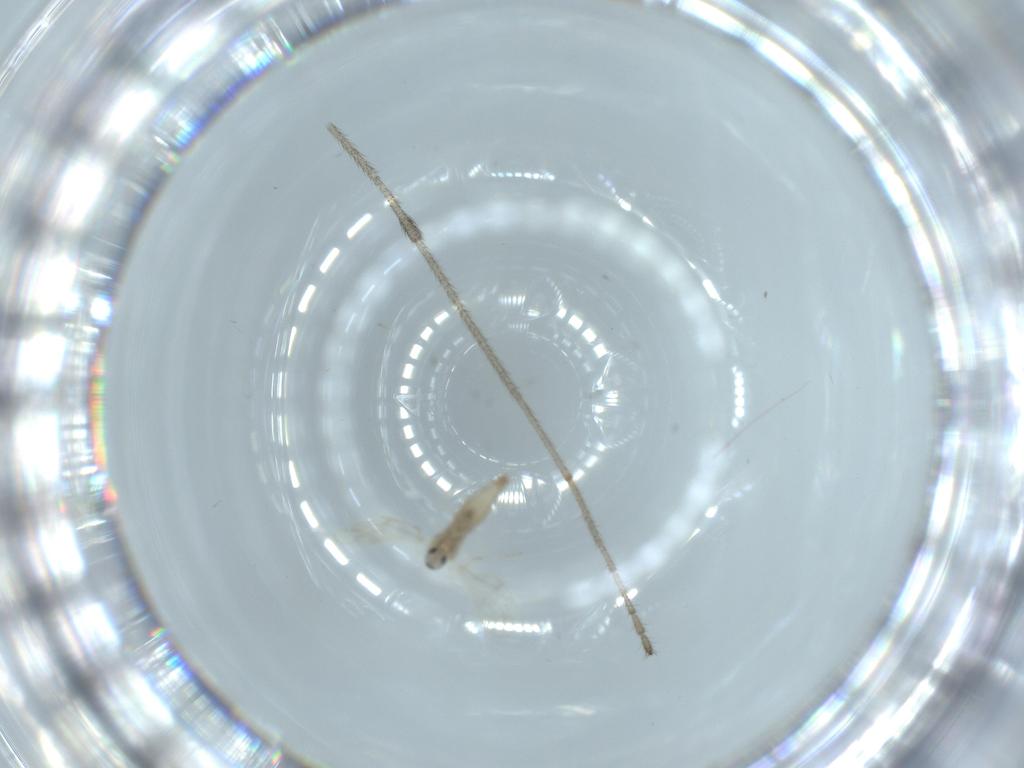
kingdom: Animalia
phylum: Arthropoda
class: Insecta
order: Diptera
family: Limoniidae
